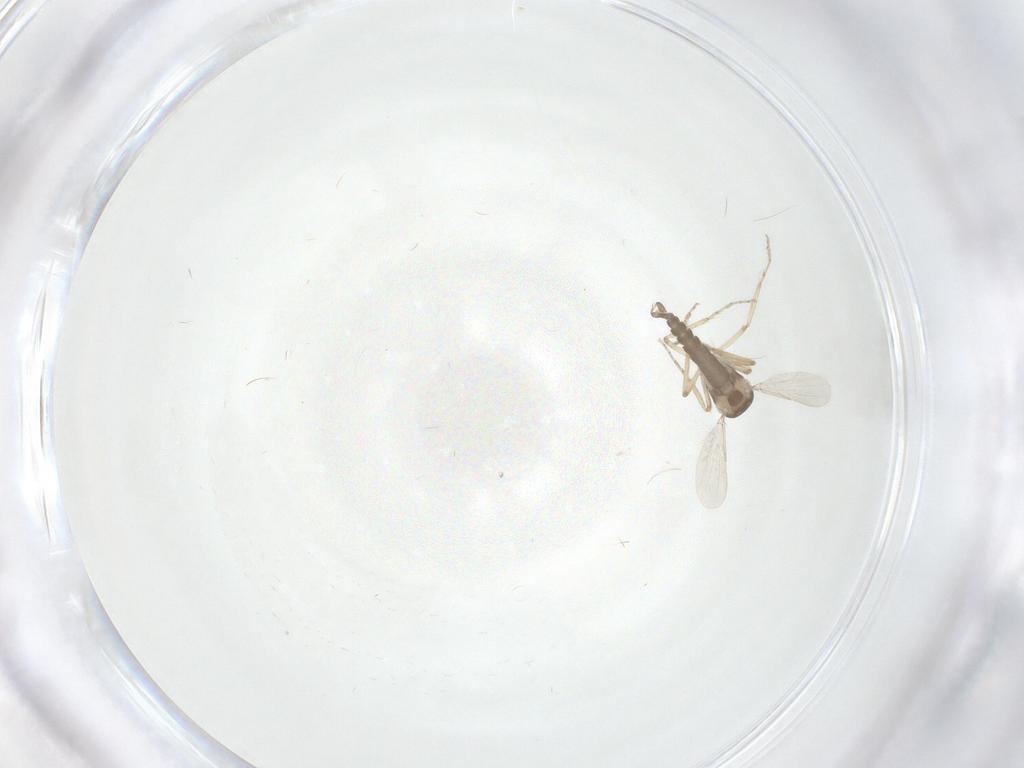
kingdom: Animalia
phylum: Arthropoda
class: Insecta
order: Diptera
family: Ceratopogonidae
